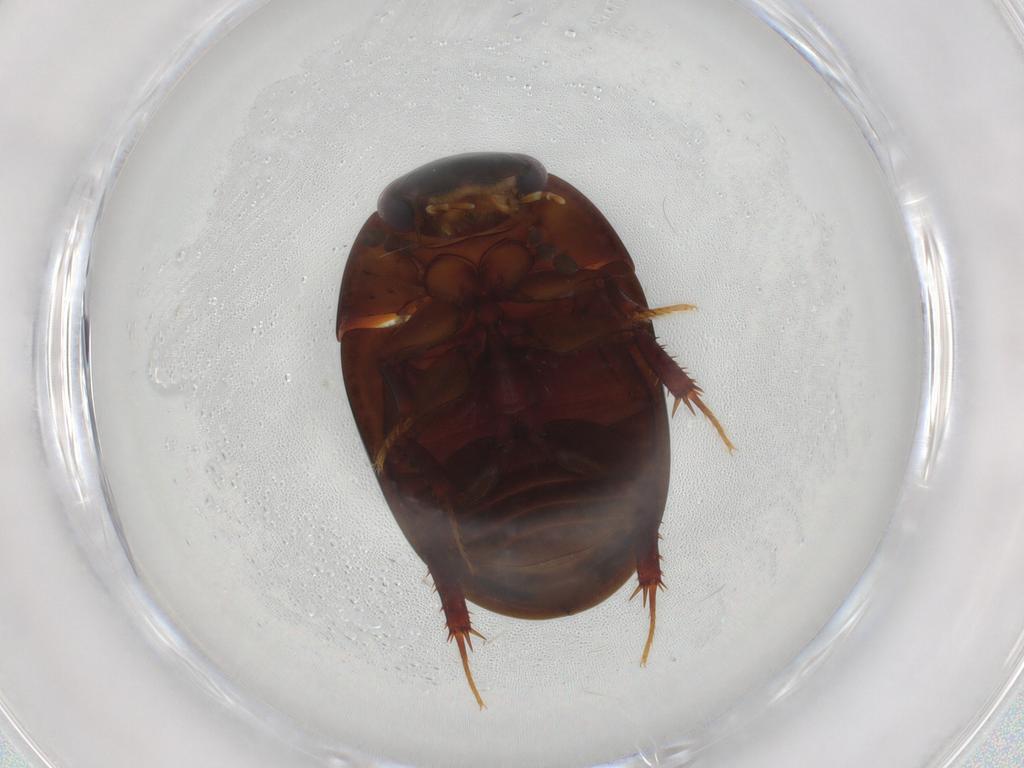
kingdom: Animalia
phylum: Arthropoda
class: Insecta
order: Coleoptera
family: Hydrophilidae
